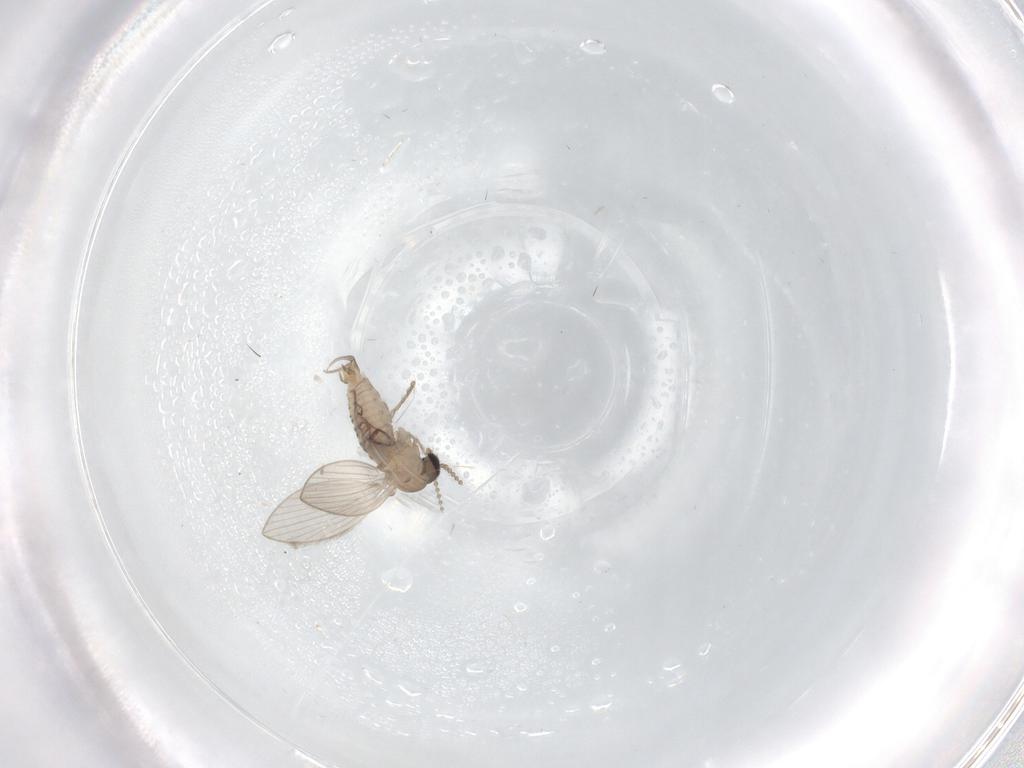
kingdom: Animalia
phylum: Arthropoda
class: Insecta
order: Diptera
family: Psychodidae
